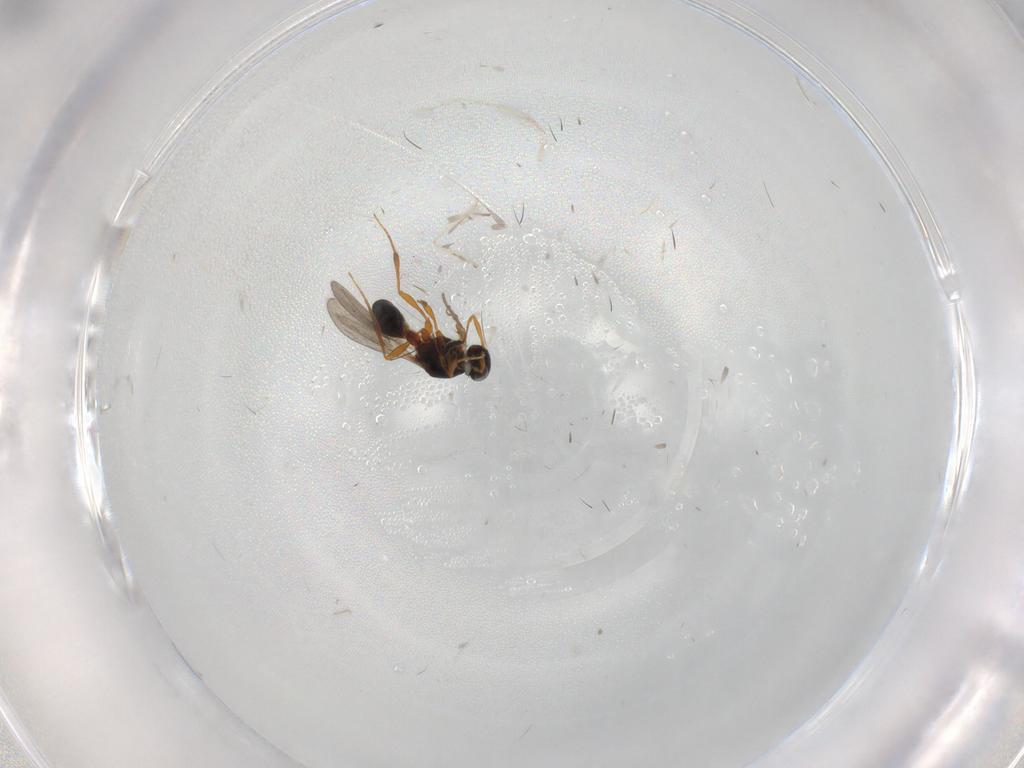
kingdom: Animalia
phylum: Arthropoda
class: Insecta
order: Hymenoptera
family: Platygastridae
